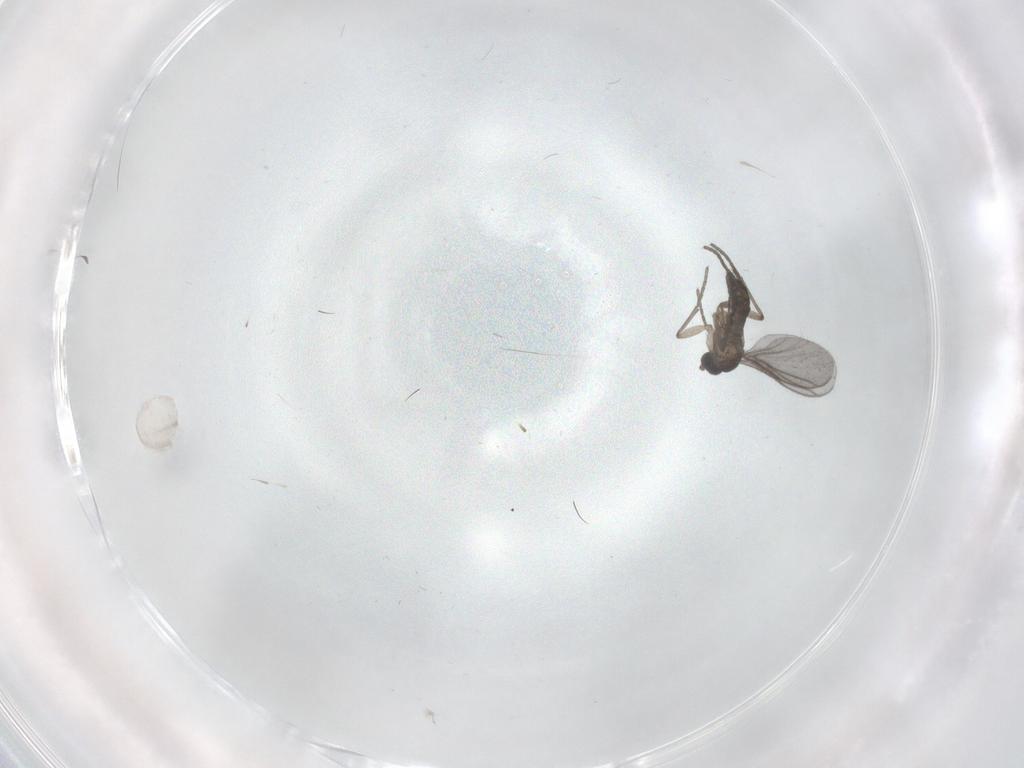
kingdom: Animalia
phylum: Arthropoda
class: Insecta
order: Diptera
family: Sciaridae
